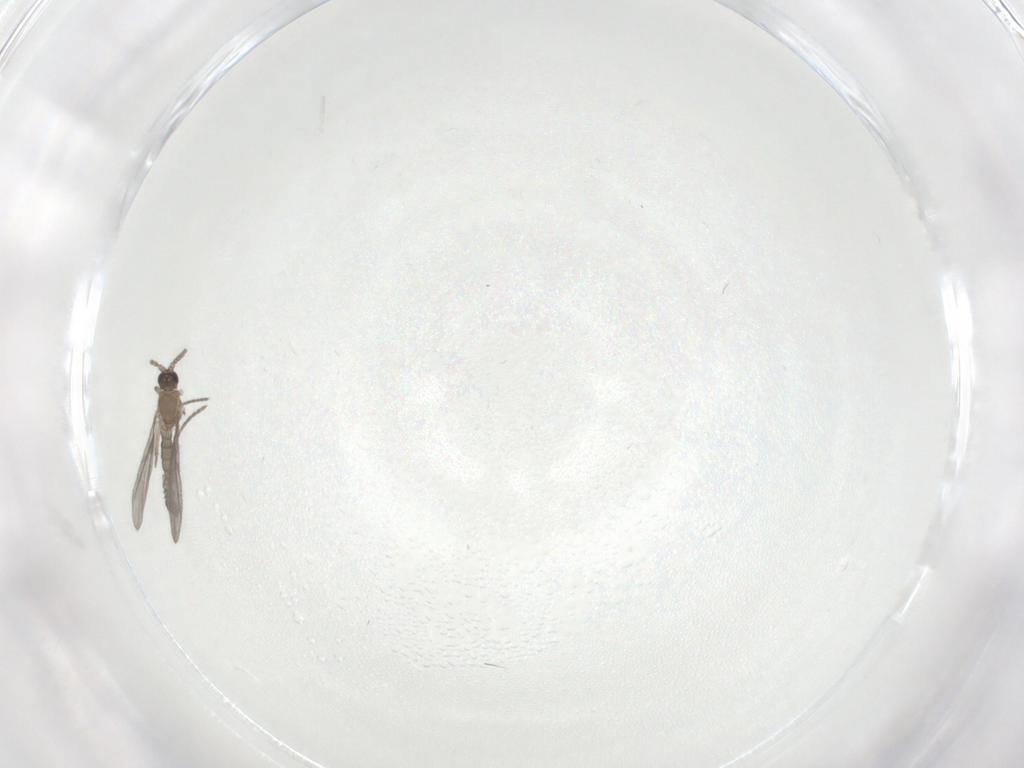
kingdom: Animalia
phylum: Arthropoda
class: Insecta
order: Diptera
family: Sciaridae
